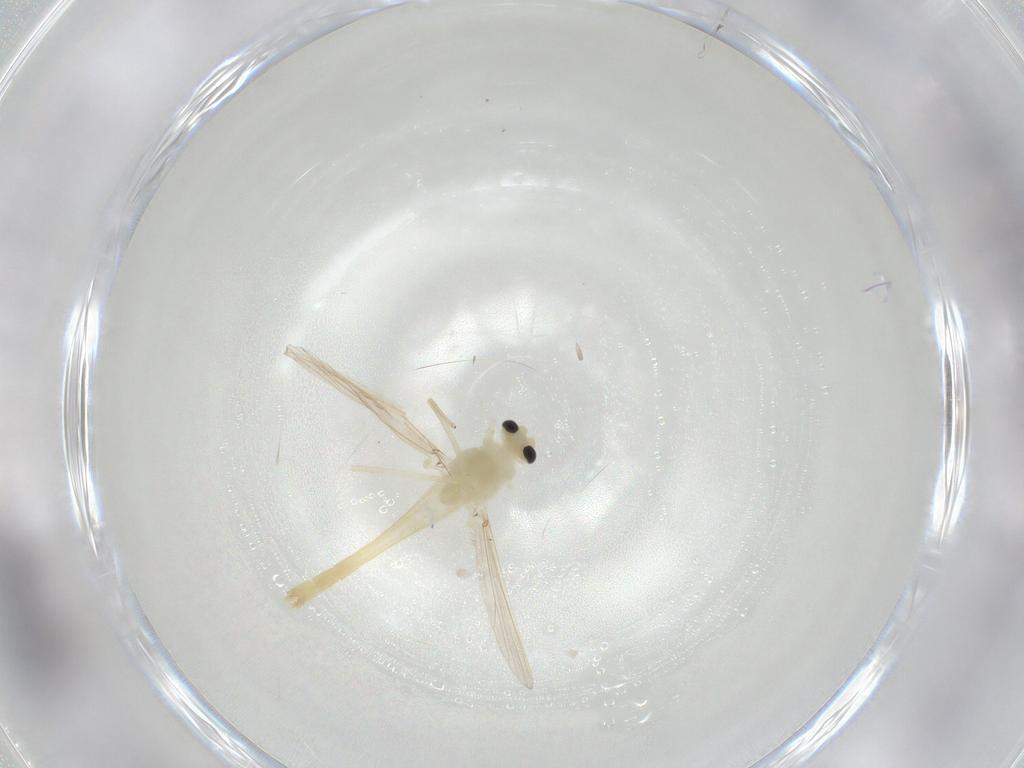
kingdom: Animalia
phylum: Arthropoda
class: Insecta
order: Diptera
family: Chironomidae
